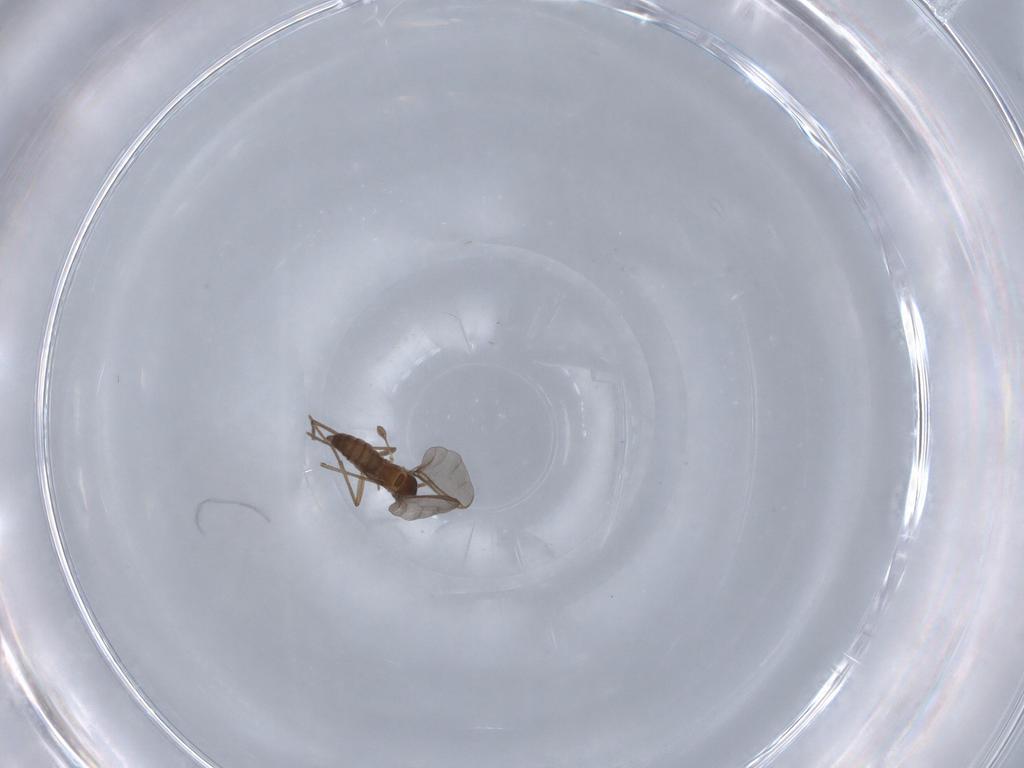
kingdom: Animalia
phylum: Arthropoda
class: Insecta
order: Diptera
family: Sciaridae
